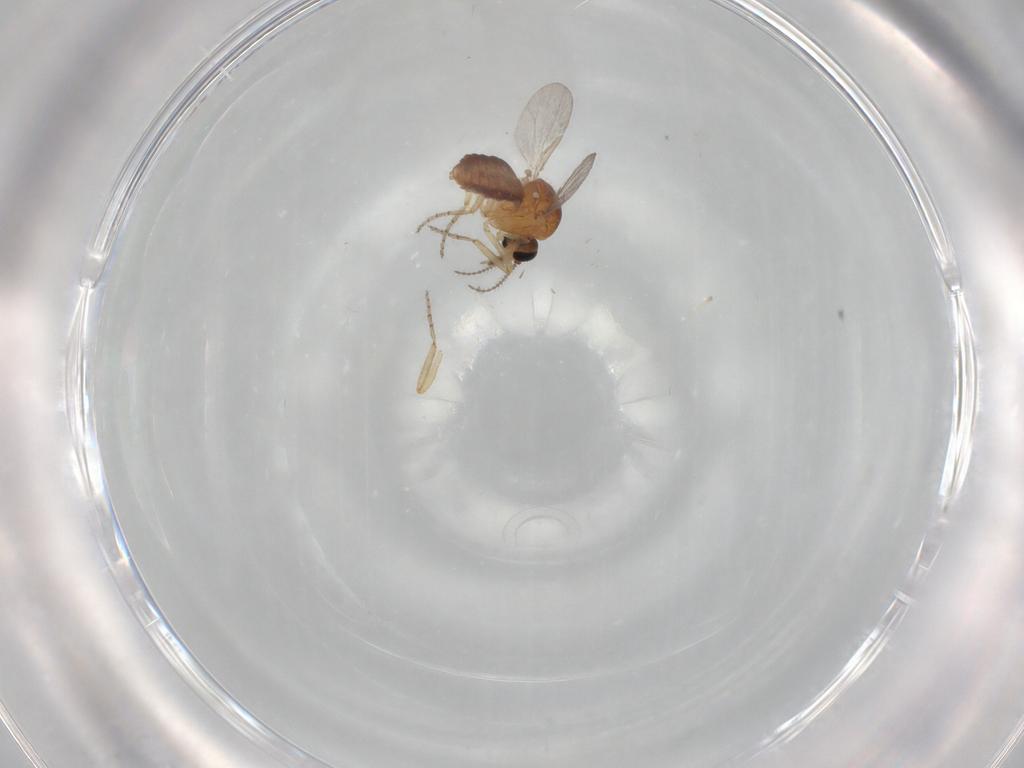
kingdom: Animalia
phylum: Arthropoda
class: Insecta
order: Diptera
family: Ceratopogonidae
